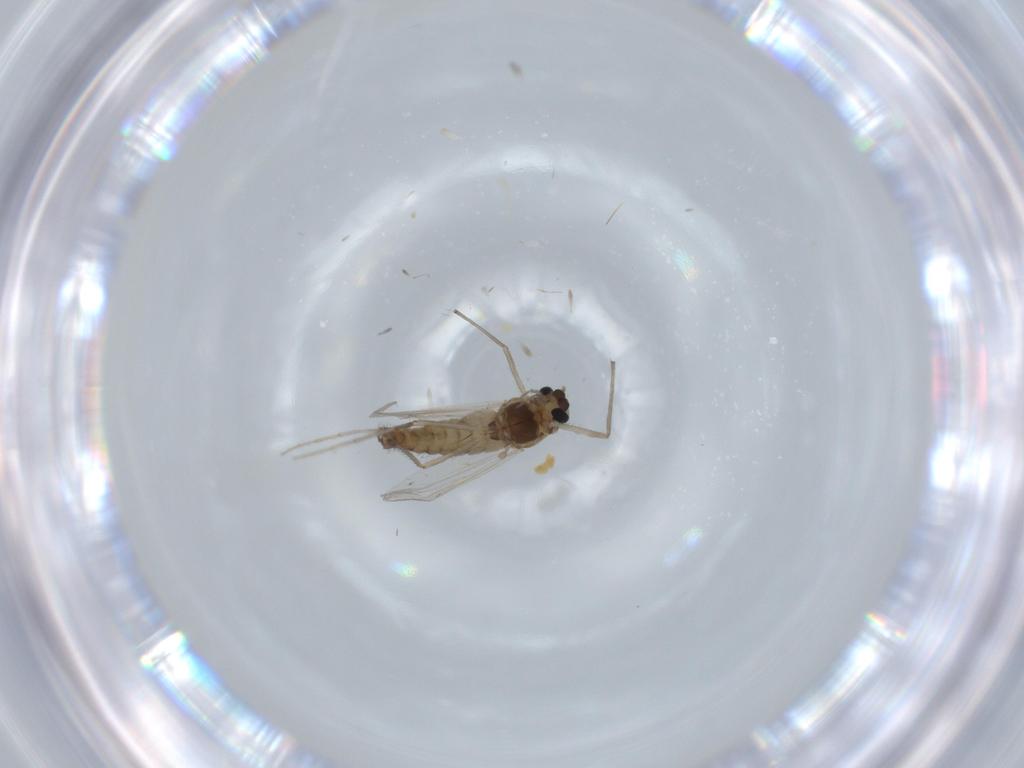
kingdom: Animalia
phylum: Arthropoda
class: Insecta
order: Diptera
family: Chironomidae
